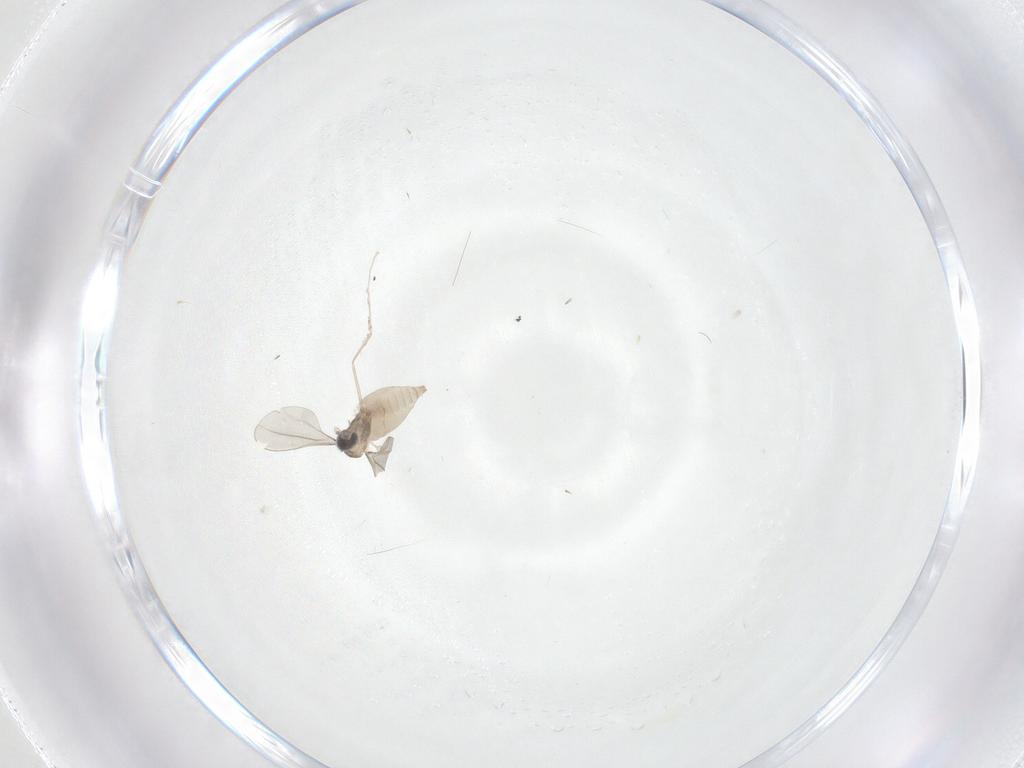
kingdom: Animalia
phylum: Arthropoda
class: Insecta
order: Diptera
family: Cecidomyiidae
